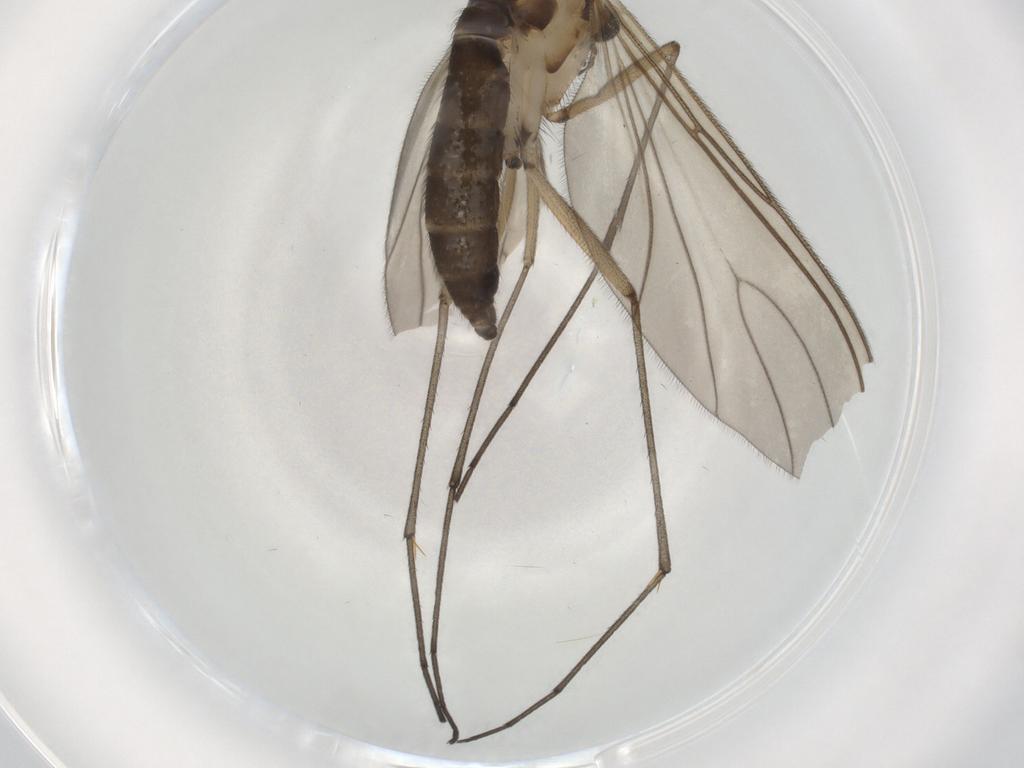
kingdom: Animalia
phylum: Arthropoda
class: Insecta
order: Diptera
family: Sciaridae
